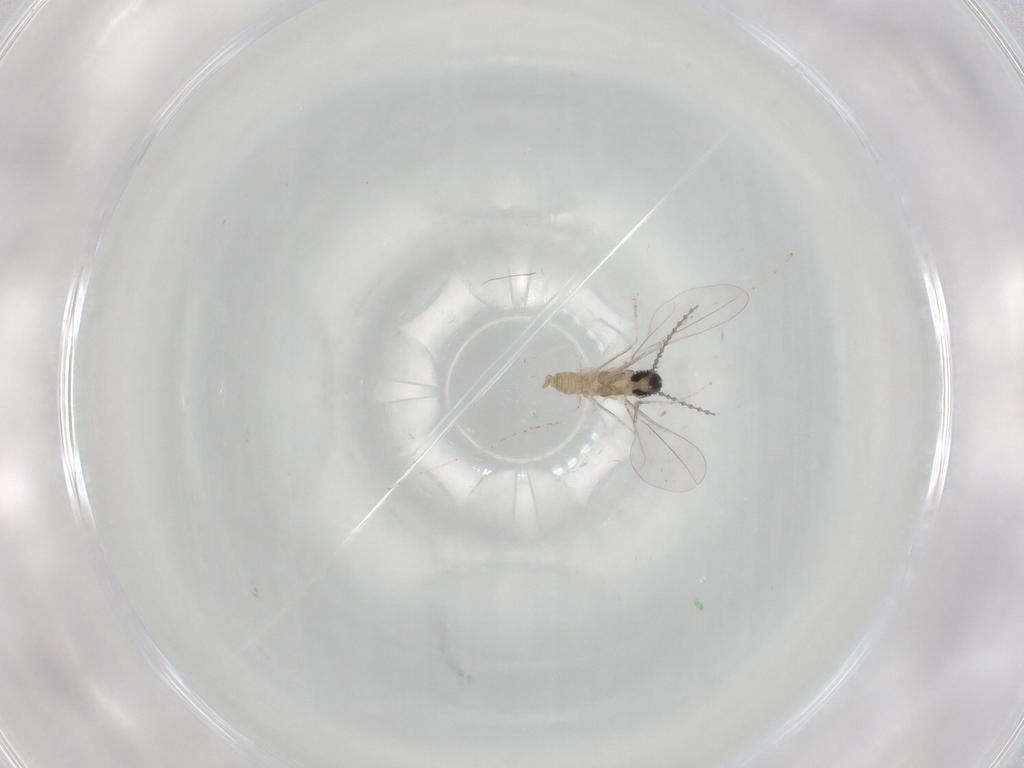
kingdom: Animalia
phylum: Arthropoda
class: Insecta
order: Diptera
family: Cecidomyiidae
